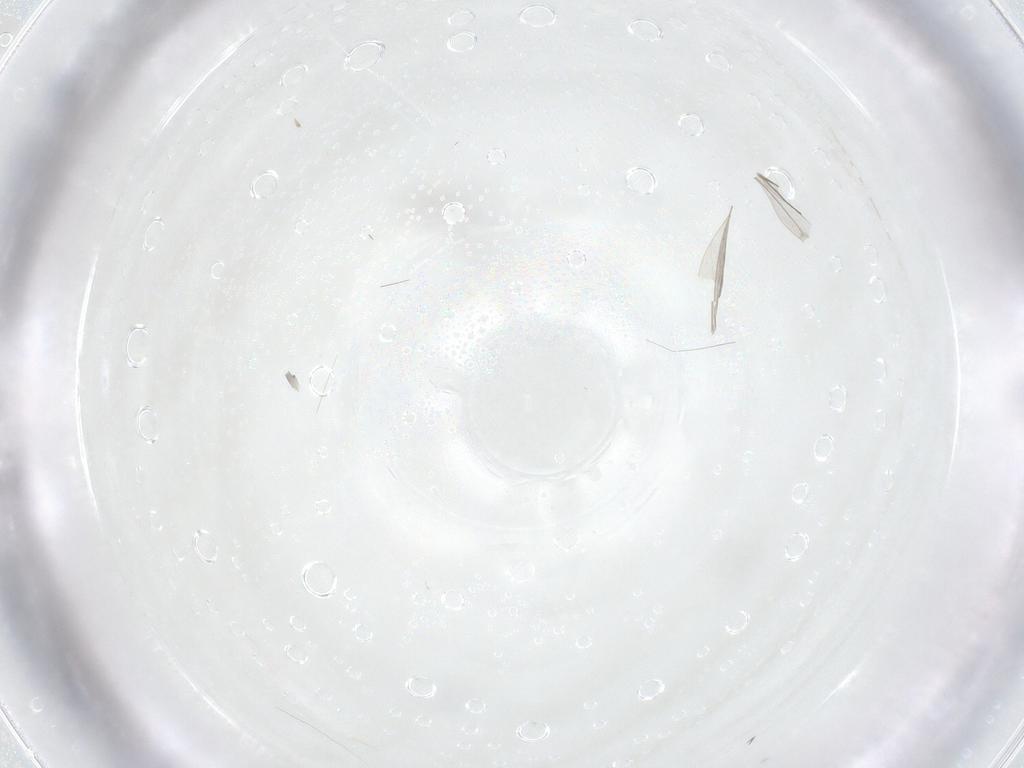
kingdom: Animalia
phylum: Arthropoda
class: Insecta
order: Diptera
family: Cecidomyiidae
